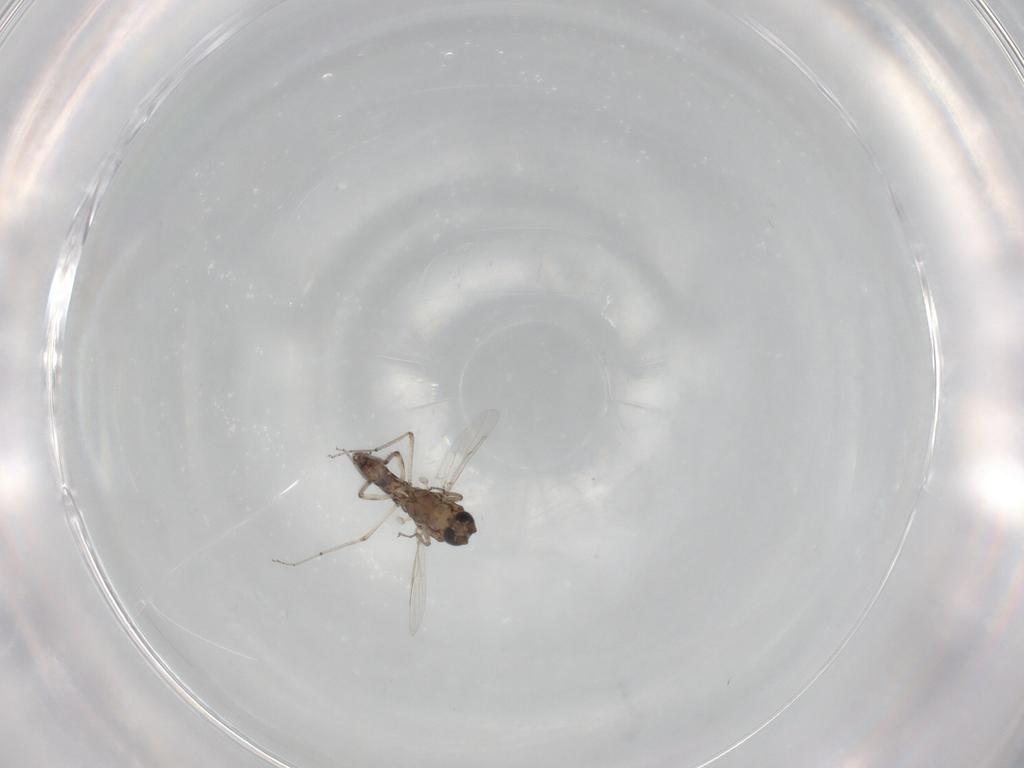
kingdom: Animalia
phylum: Arthropoda
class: Insecta
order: Diptera
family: Ceratopogonidae
